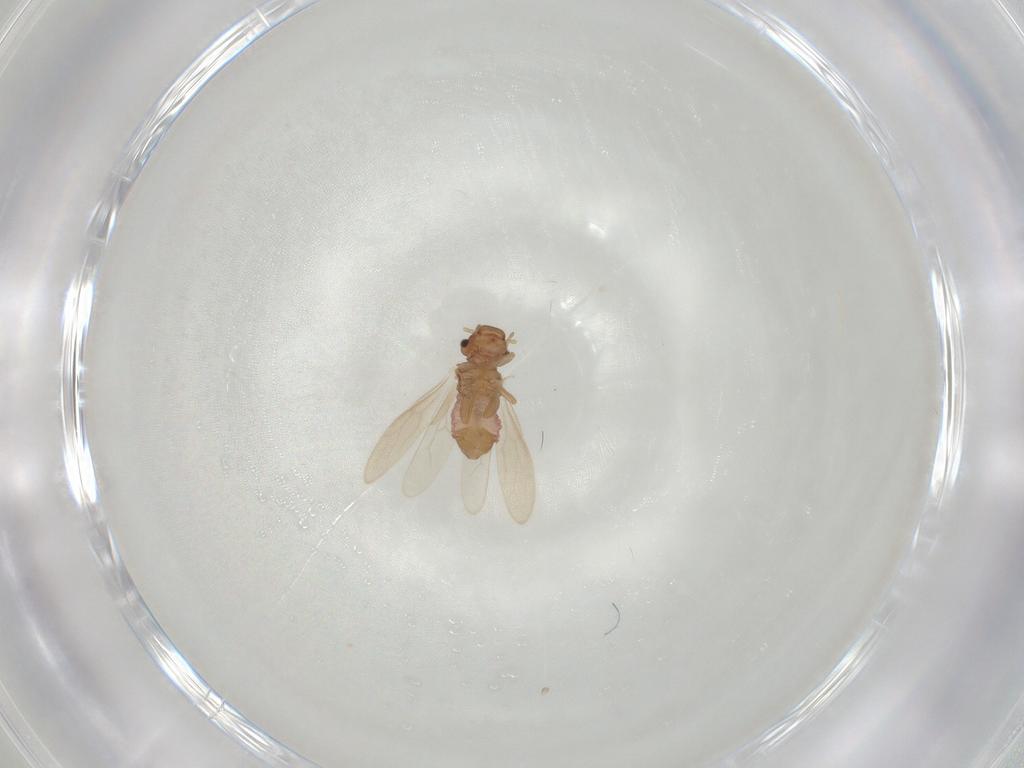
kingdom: Animalia
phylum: Arthropoda
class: Insecta
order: Psocodea
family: Archipsocidae
